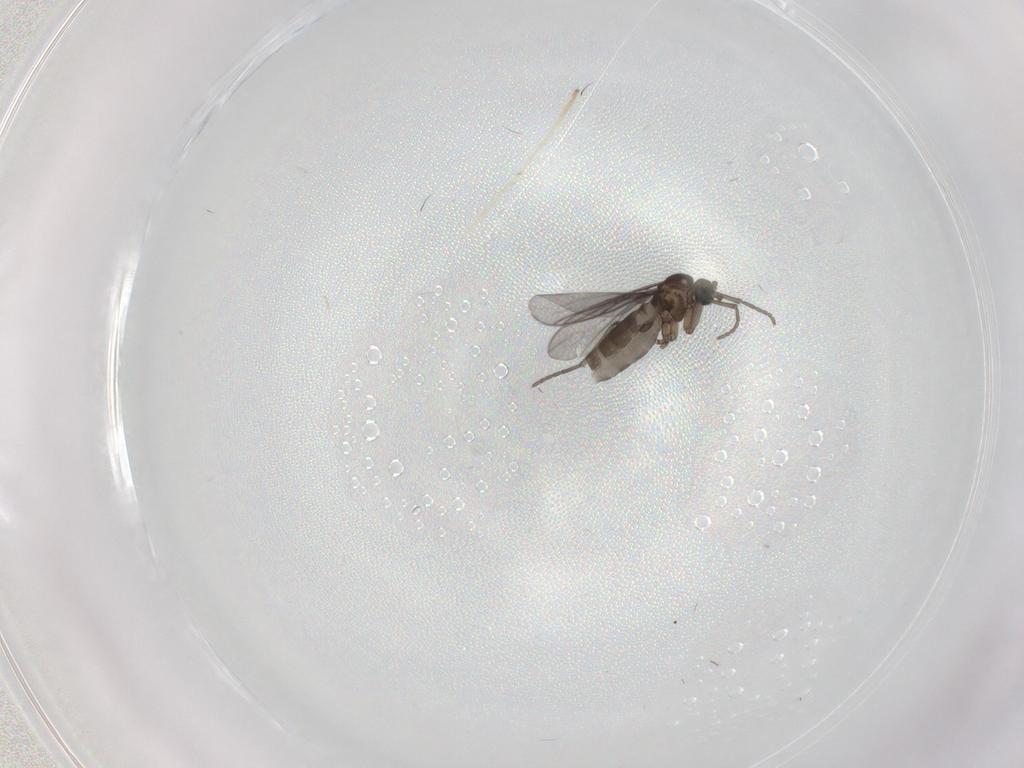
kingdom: Animalia
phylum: Arthropoda
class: Insecta
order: Diptera
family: Sciaridae
